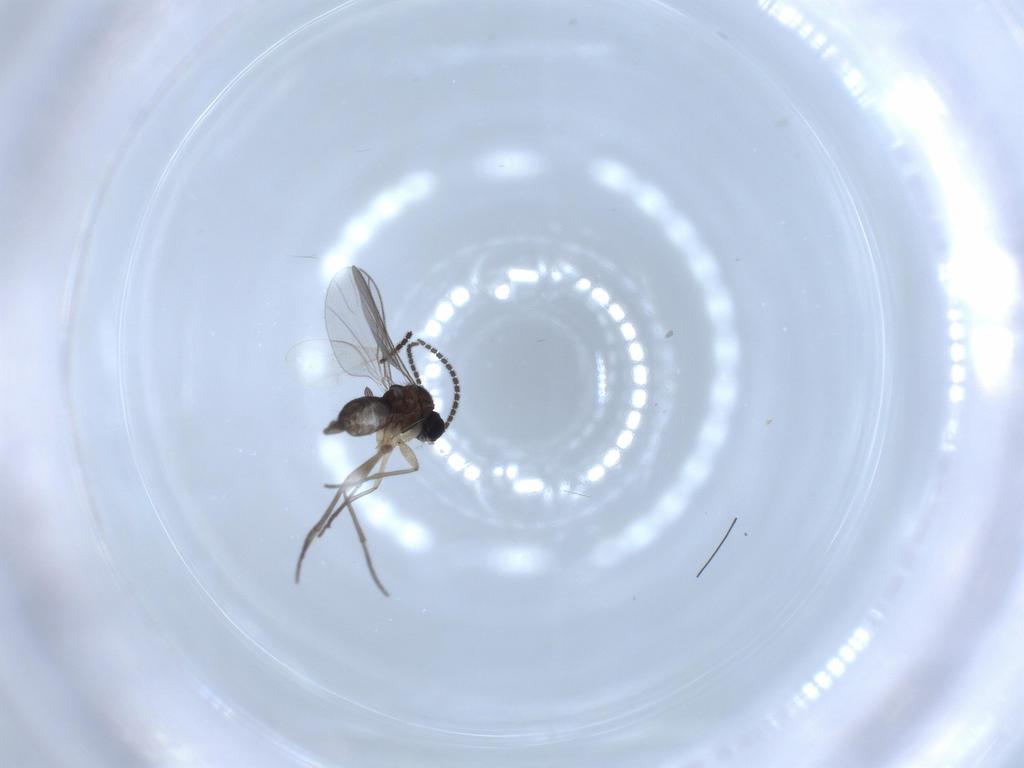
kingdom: Animalia
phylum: Arthropoda
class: Insecta
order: Diptera
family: Sciaridae
